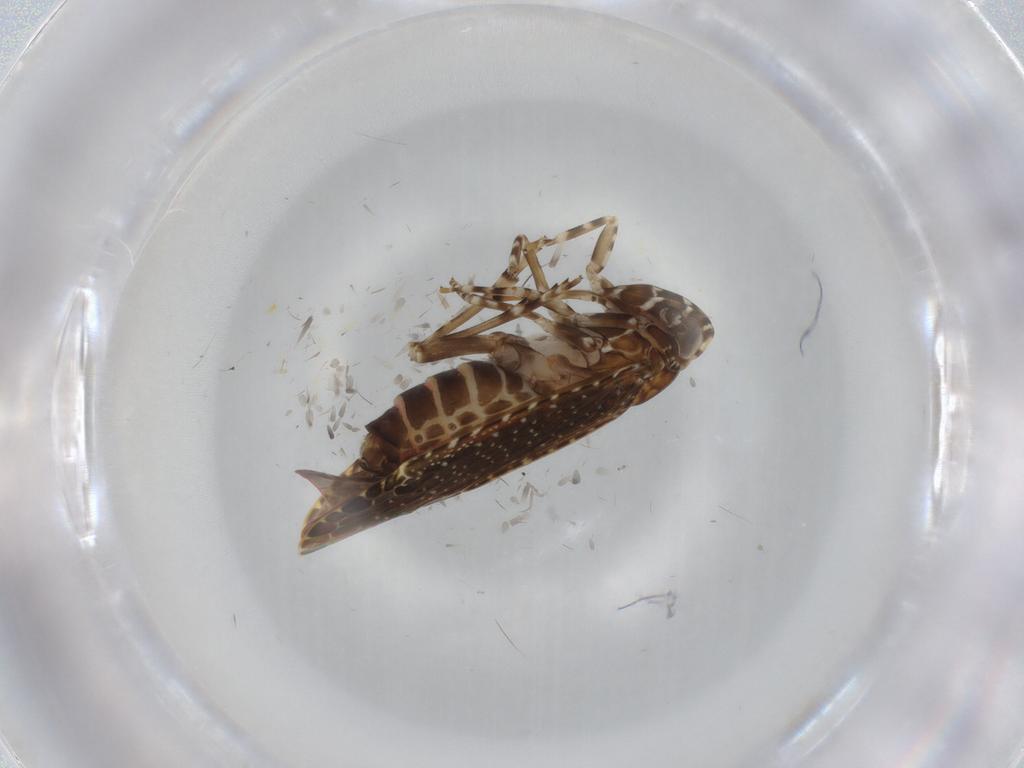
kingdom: Animalia
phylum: Arthropoda
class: Insecta
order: Hemiptera
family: Achilidae
